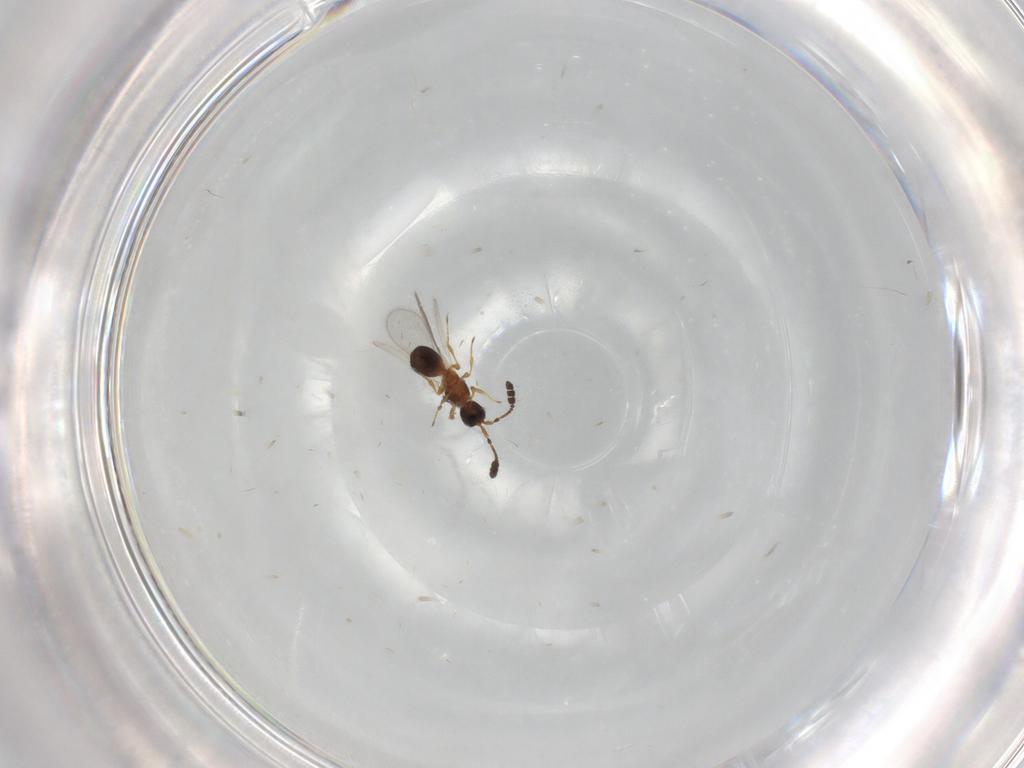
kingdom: Animalia
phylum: Arthropoda
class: Insecta
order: Hymenoptera
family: Diapriidae
